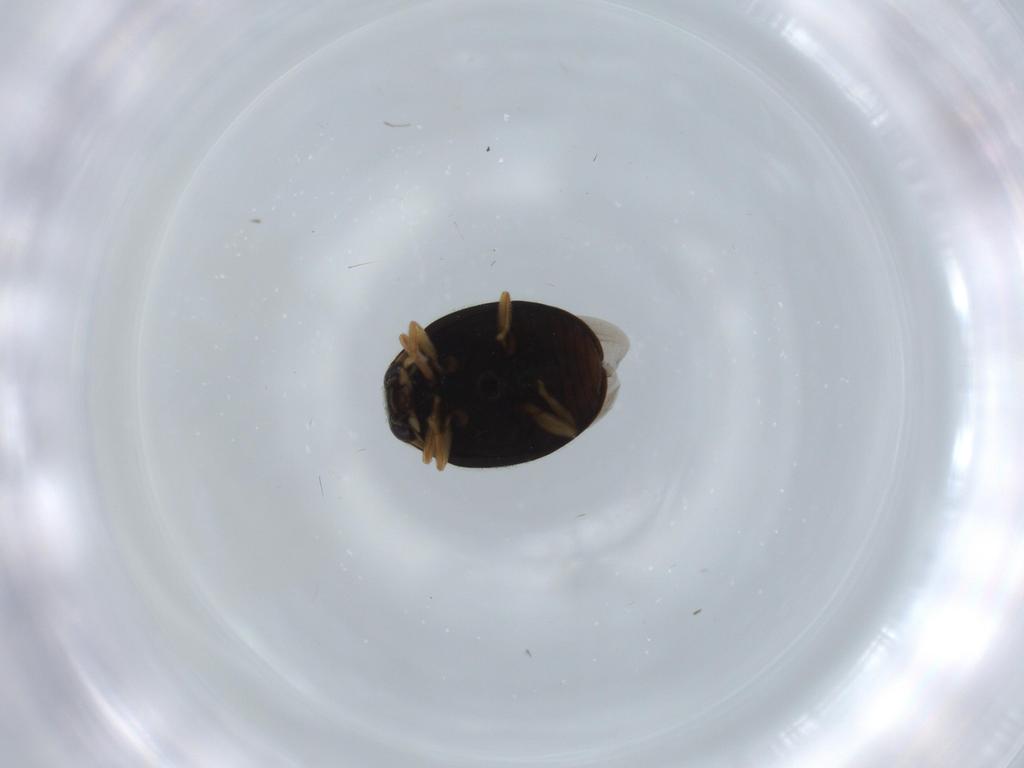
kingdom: Animalia
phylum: Arthropoda
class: Insecta
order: Coleoptera
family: Coccinellidae
